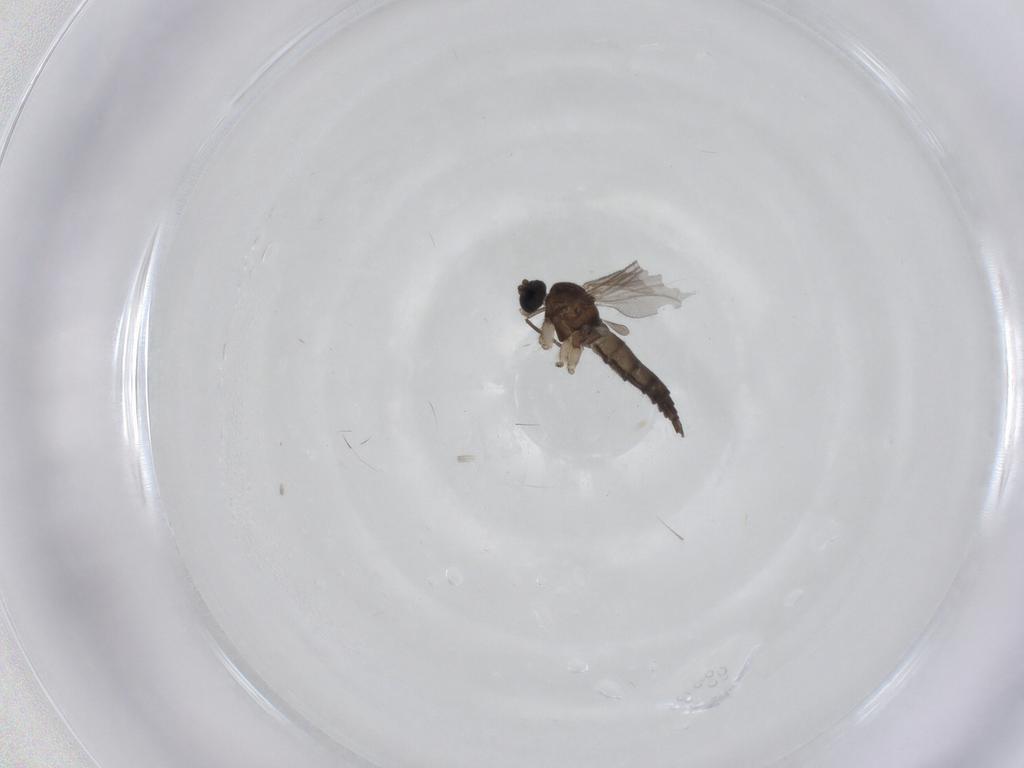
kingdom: Animalia
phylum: Arthropoda
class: Insecta
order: Diptera
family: Sciaridae
